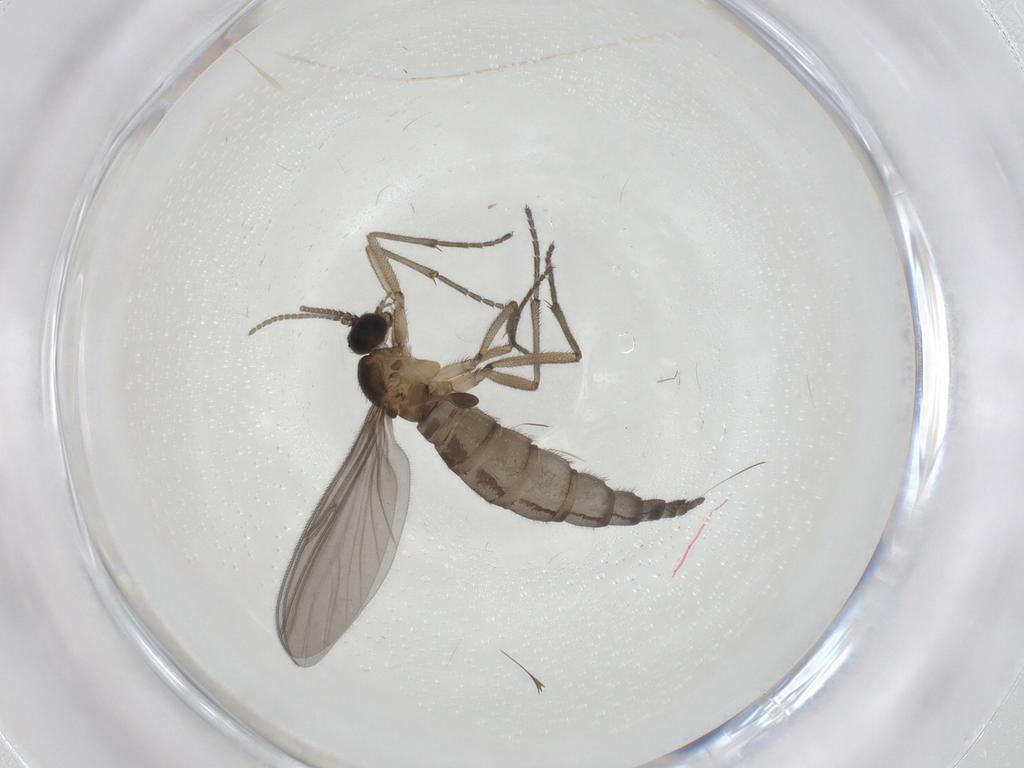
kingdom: Animalia
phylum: Arthropoda
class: Insecta
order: Diptera
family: Sciaridae
